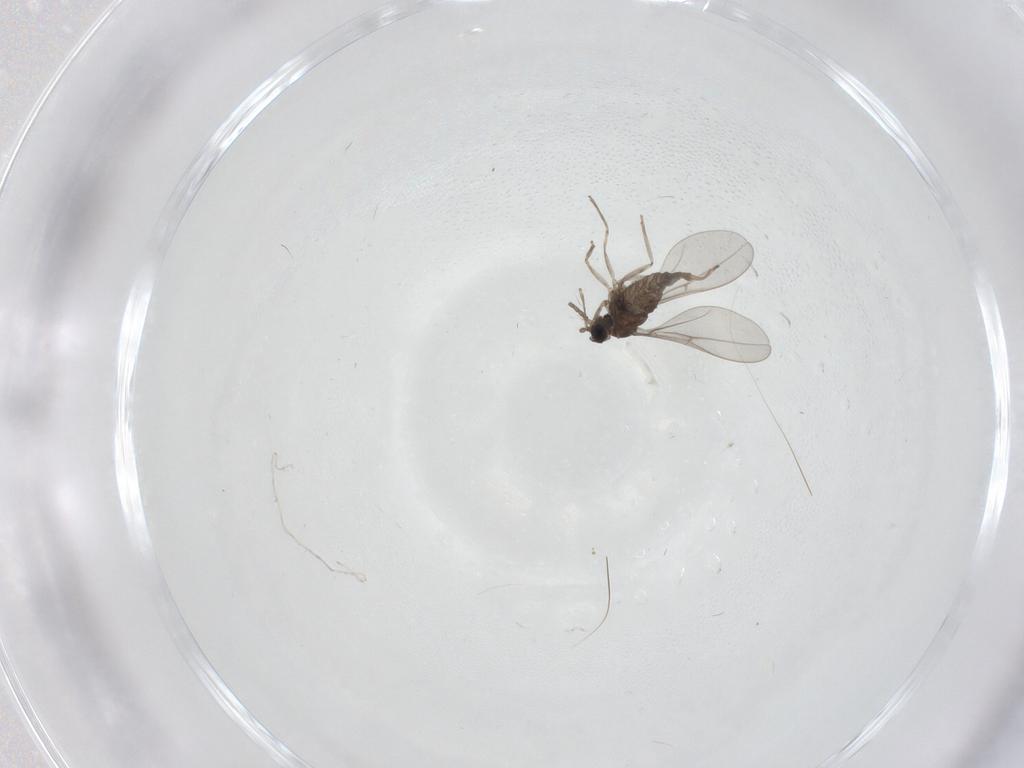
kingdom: Animalia
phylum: Arthropoda
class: Insecta
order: Diptera
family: Cecidomyiidae
